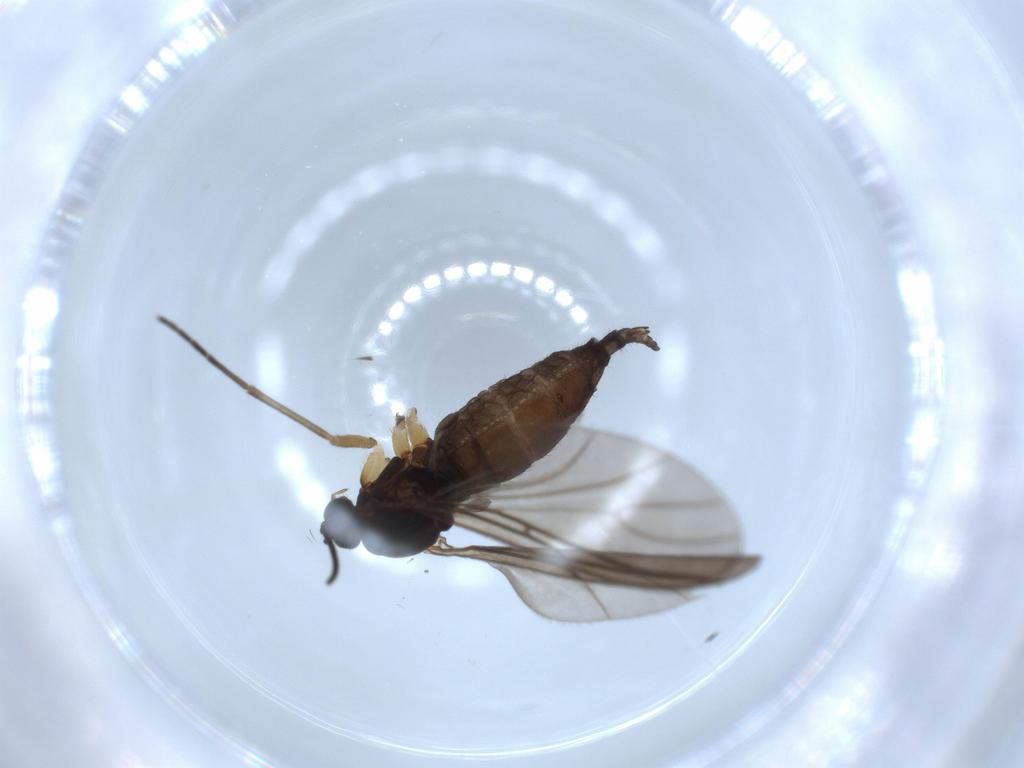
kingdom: Animalia
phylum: Arthropoda
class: Insecta
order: Diptera
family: Sciaridae
